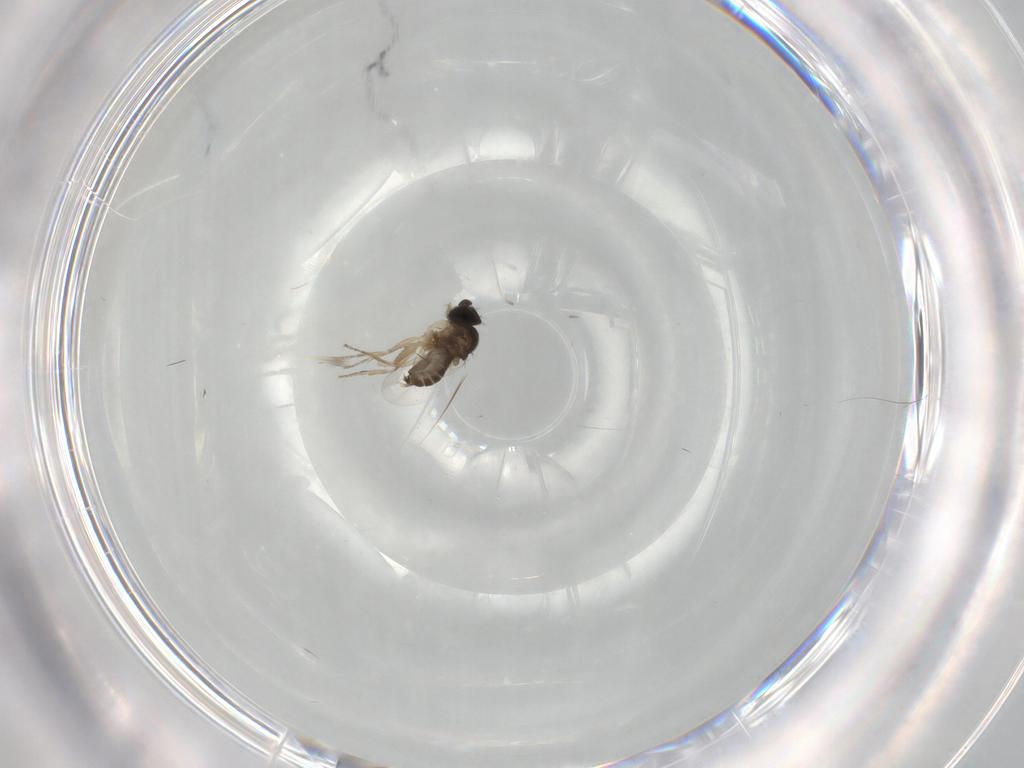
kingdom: Animalia
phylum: Arthropoda
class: Insecta
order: Diptera
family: Phoridae
